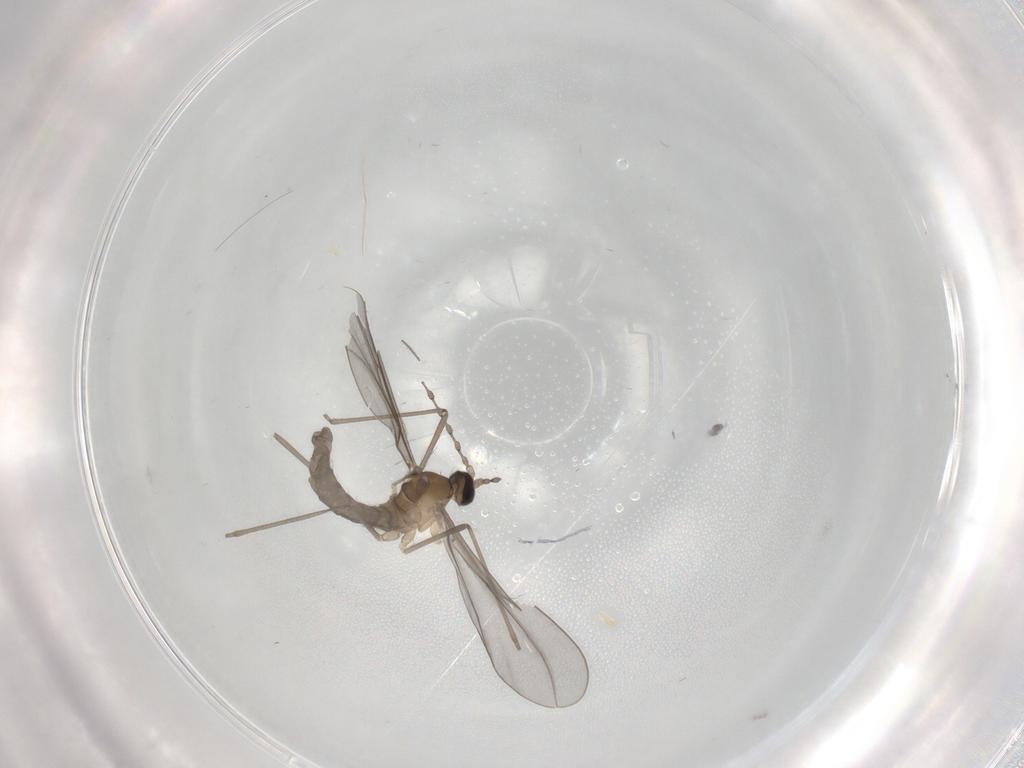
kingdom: Animalia
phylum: Arthropoda
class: Insecta
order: Diptera
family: Cecidomyiidae
